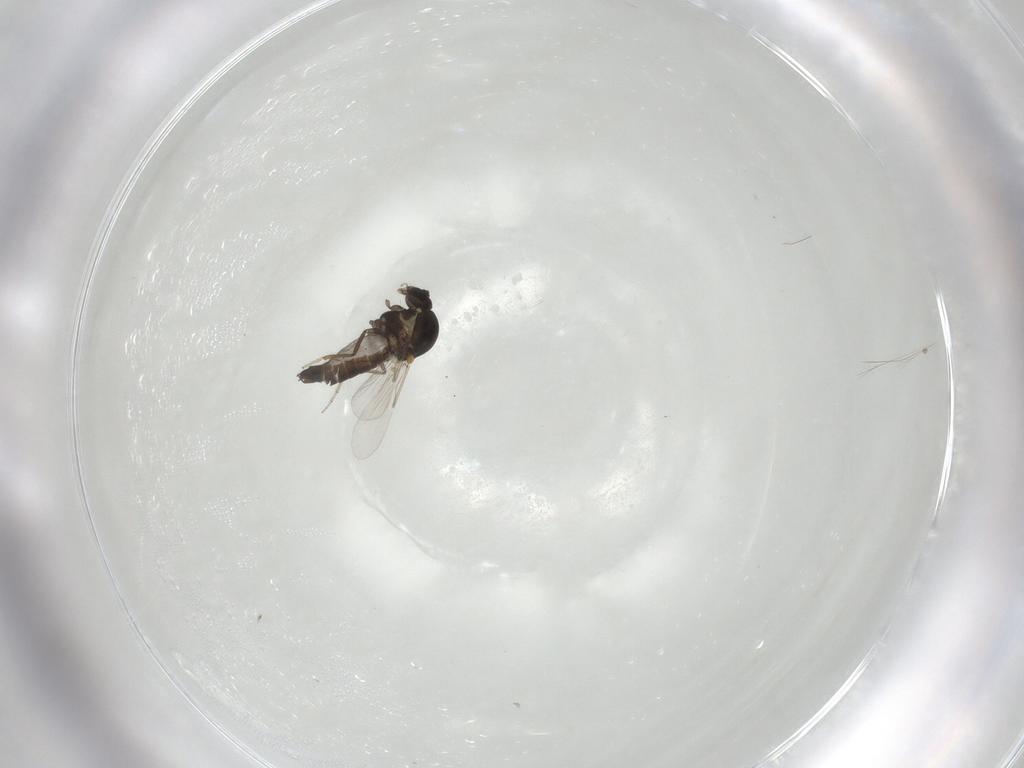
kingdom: Animalia
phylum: Arthropoda
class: Insecta
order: Diptera
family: Ceratopogonidae
